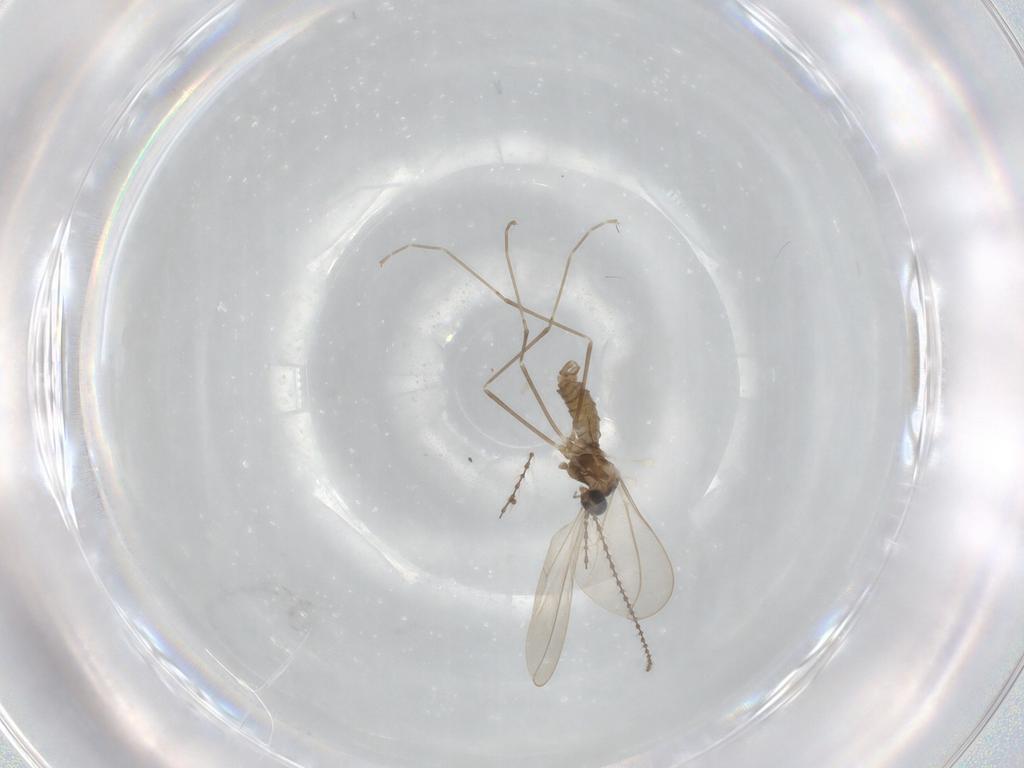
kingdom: Animalia
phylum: Arthropoda
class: Insecta
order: Diptera
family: Cecidomyiidae
